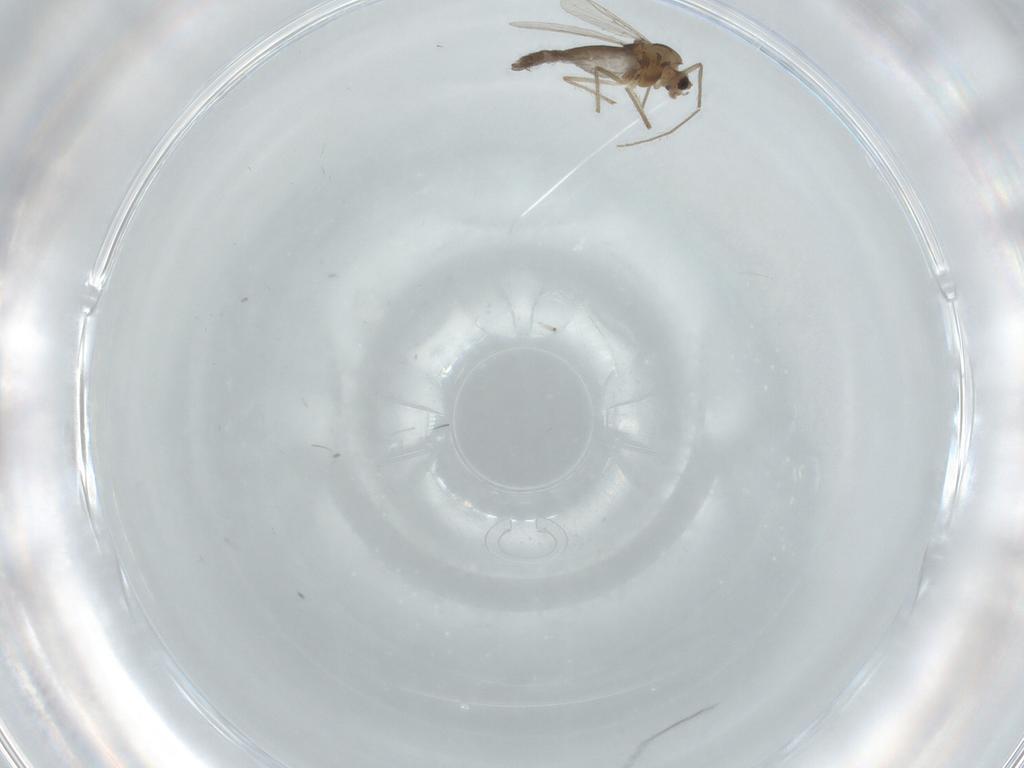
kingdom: Animalia
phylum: Arthropoda
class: Insecta
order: Diptera
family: Chironomidae
